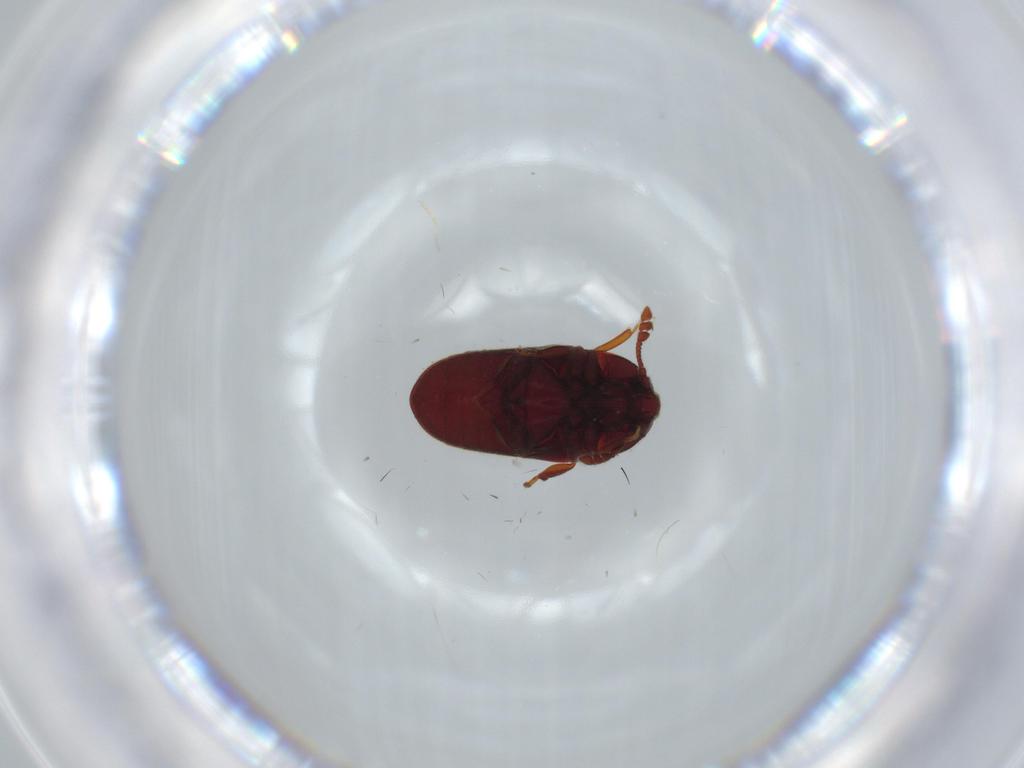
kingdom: Animalia
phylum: Arthropoda
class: Insecta
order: Coleoptera
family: Throscidae
